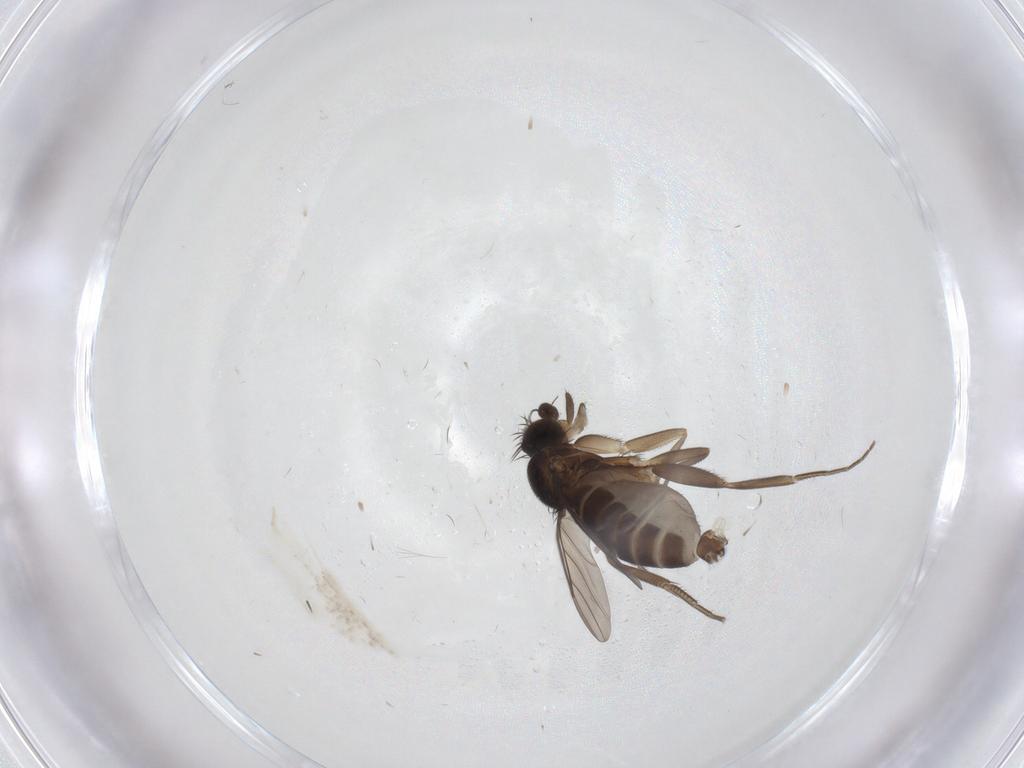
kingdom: Animalia
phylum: Arthropoda
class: Insecta
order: Diptera
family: Phoridae
